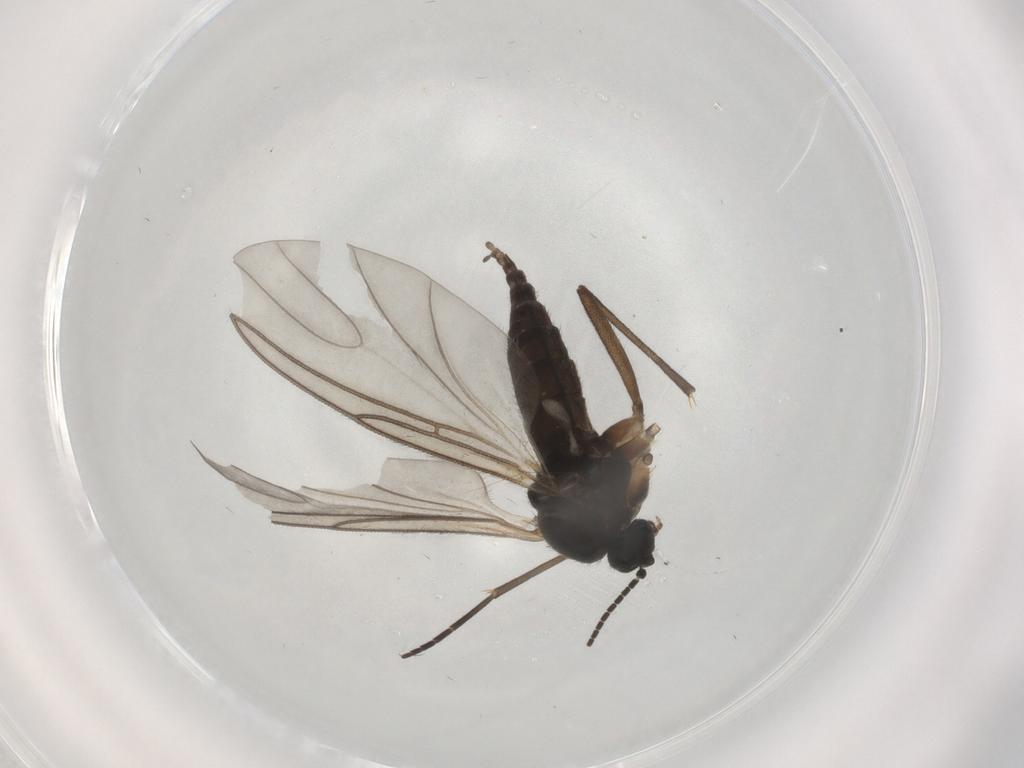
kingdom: Animalia
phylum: Arthropoda
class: Insecta
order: Diptera
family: Sciaridae
